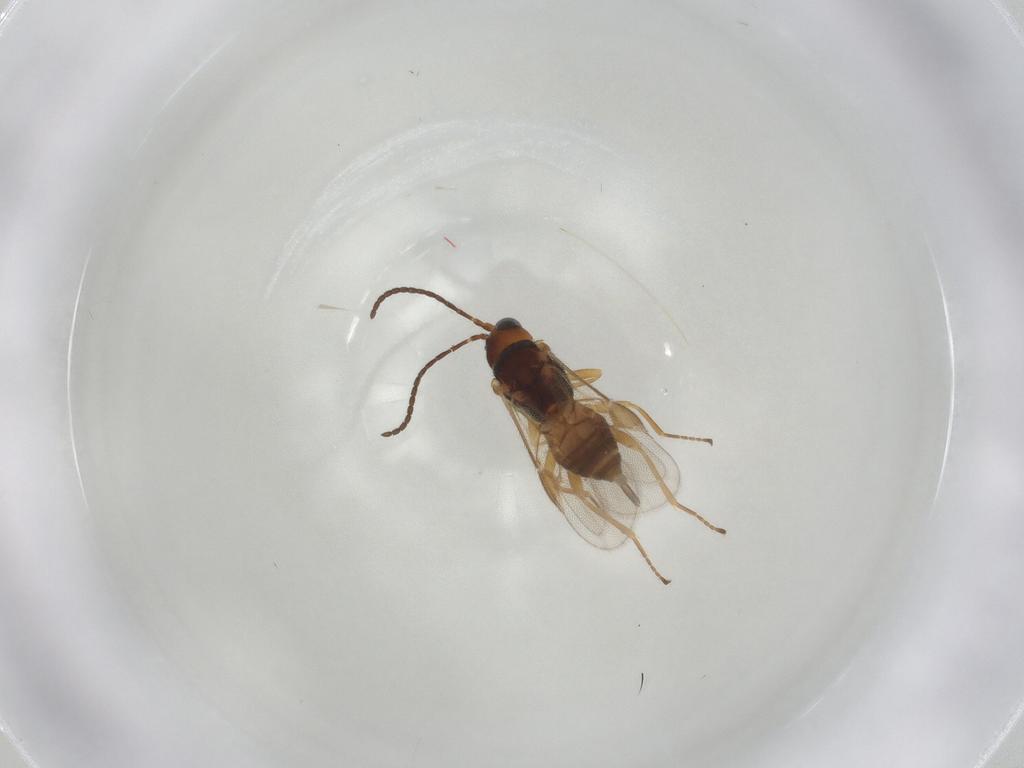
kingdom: Animalia
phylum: Arthropoda
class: Insecta
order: Hymenoptera
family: Braconidae
